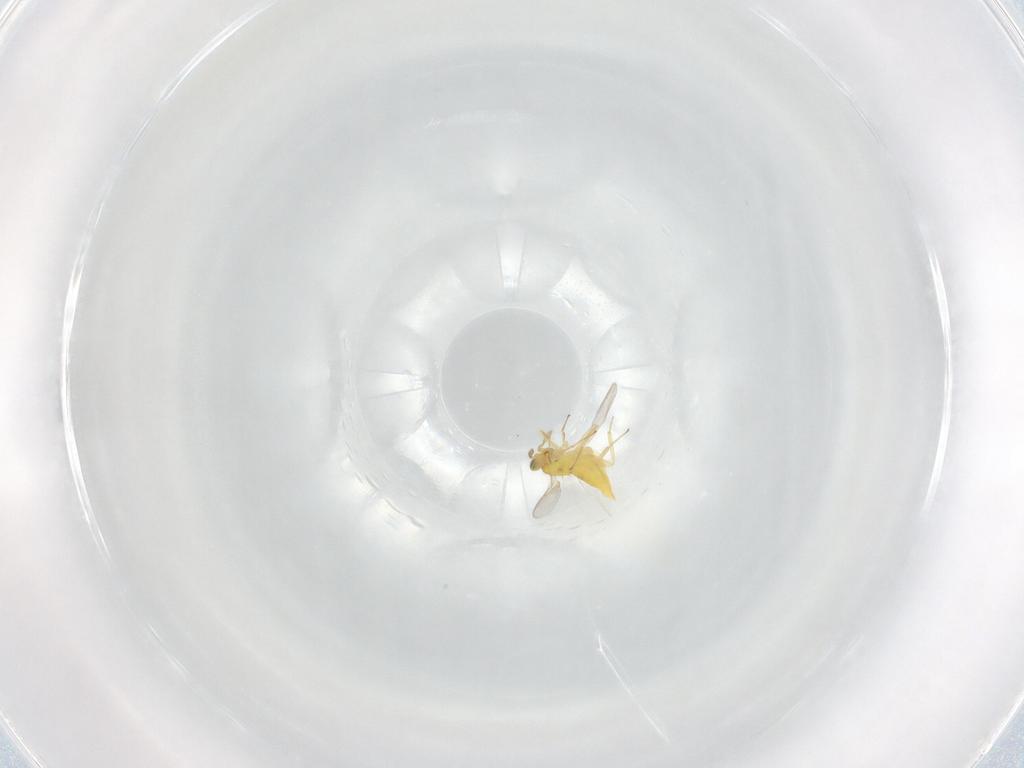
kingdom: Animalia
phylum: Arthropoda
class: Insecta
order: Hymenoptera
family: Aphelinidae
